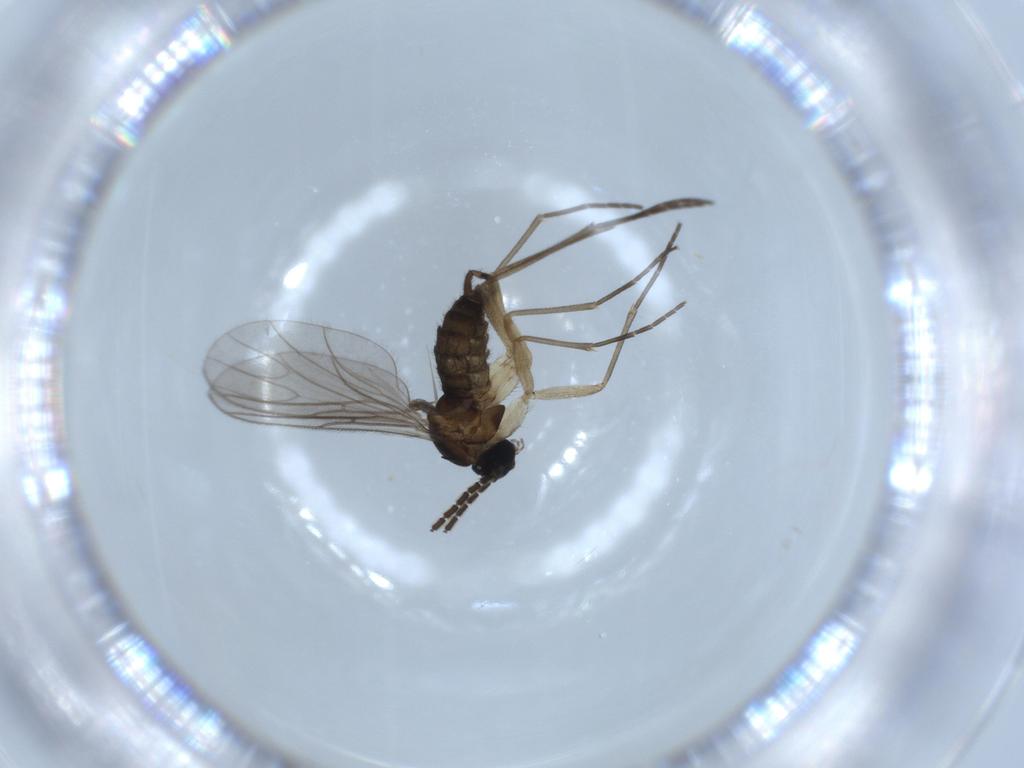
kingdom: Animalia
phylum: Arthropoda
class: Insecta
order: Diptera
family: Sciaridae
